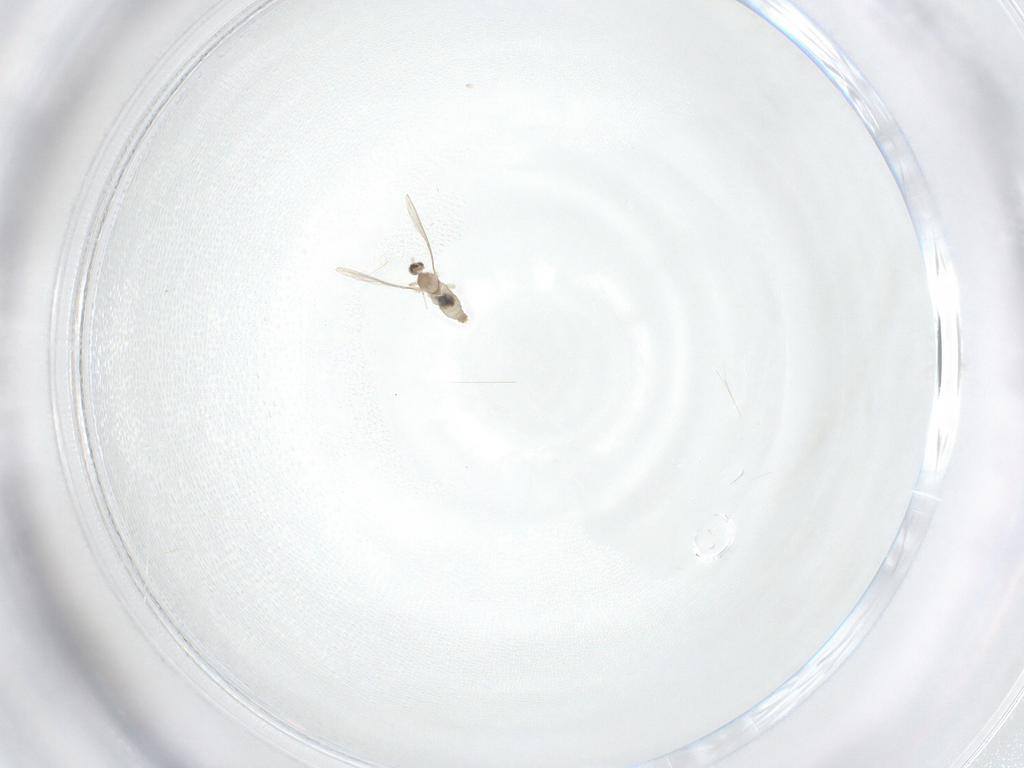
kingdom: Animalia
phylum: Arthropoda
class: Insecta
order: Diptera
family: Cecidomyiidae
